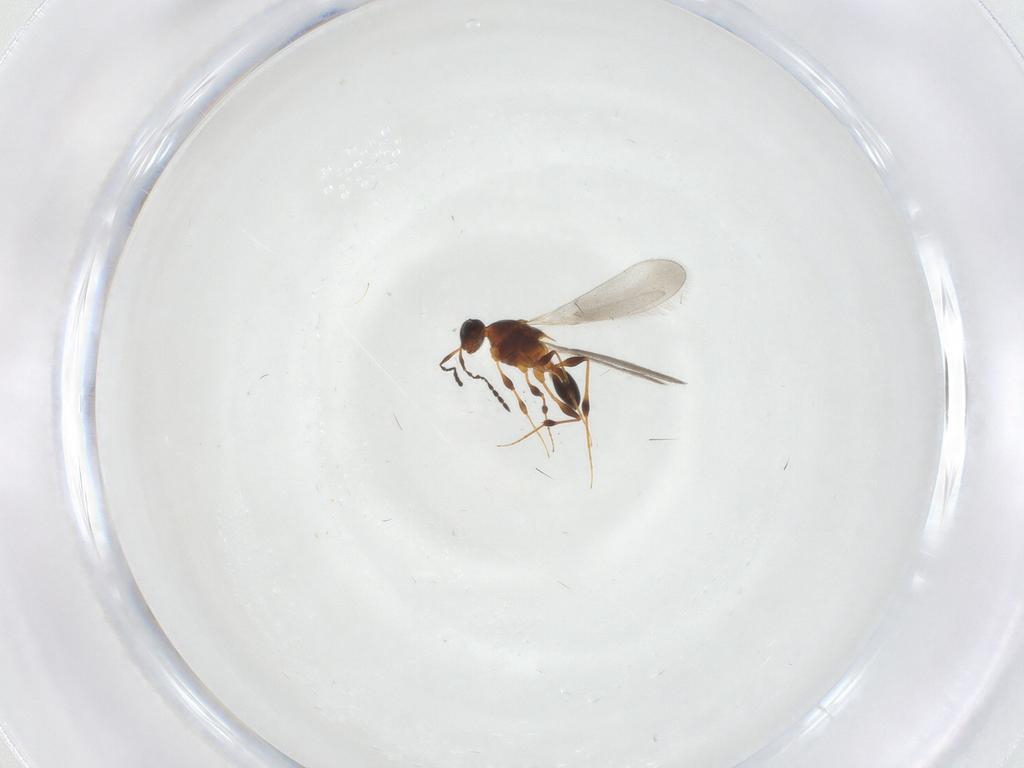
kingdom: Animalia
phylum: Arthropoda
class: Insecta
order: Hymenoptera
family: Platygastridae
